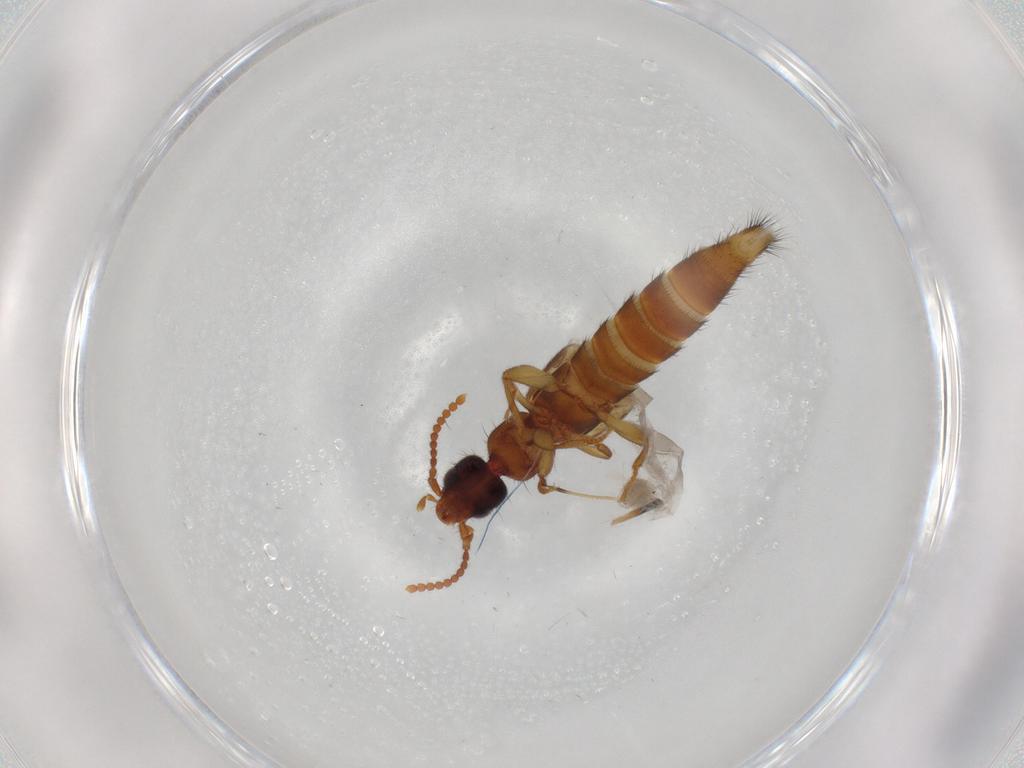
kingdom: Animalia
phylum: Arthropoda
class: Insecta
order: Coleoptera
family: Staphylinidae
